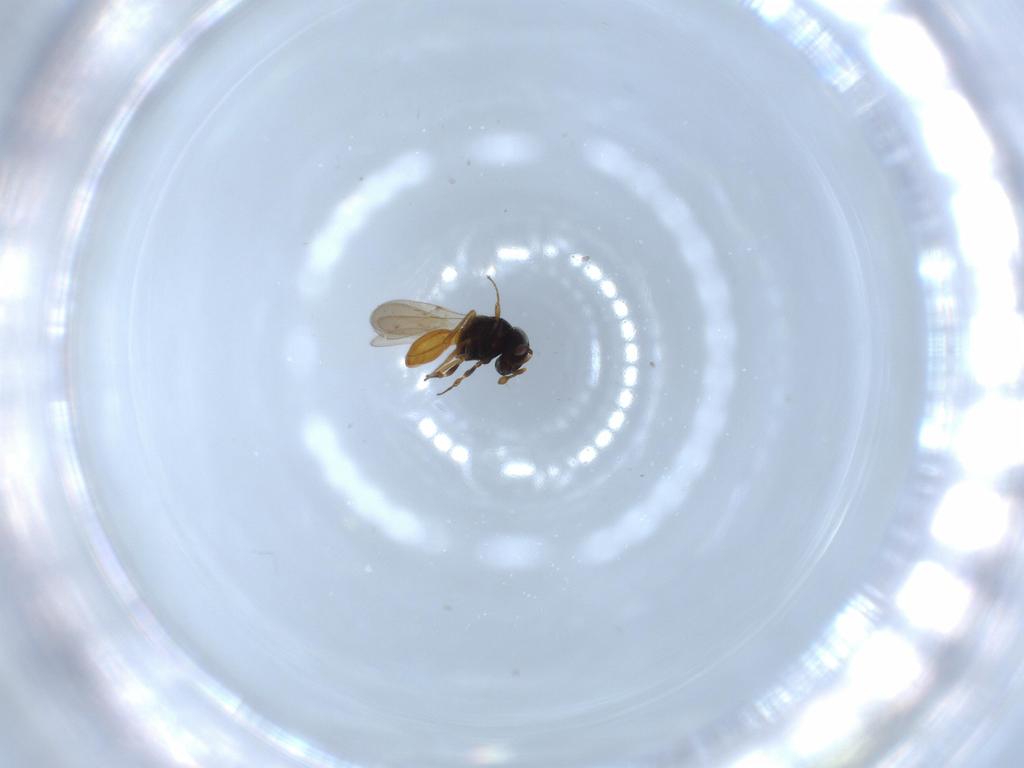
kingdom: Animalia
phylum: Arthropoda
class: Insecta
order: Hymenoptera
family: Scelionidae
